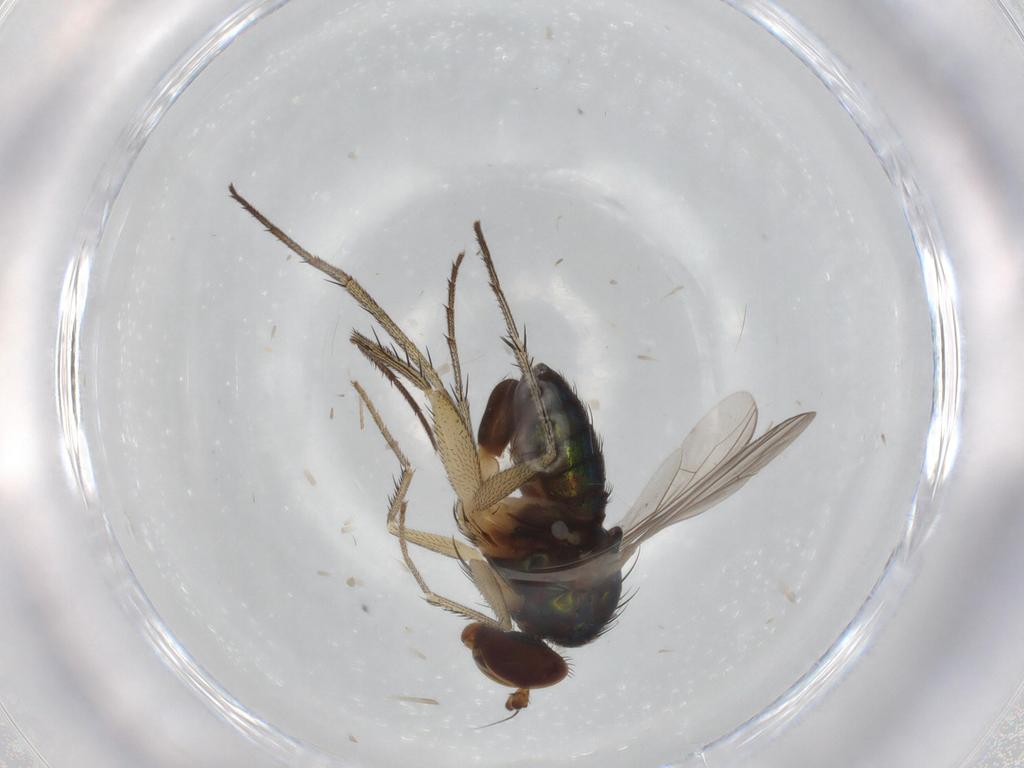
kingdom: Animalia
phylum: Arthropoda
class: Insecta
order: Diptera
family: Dolichopodidae
